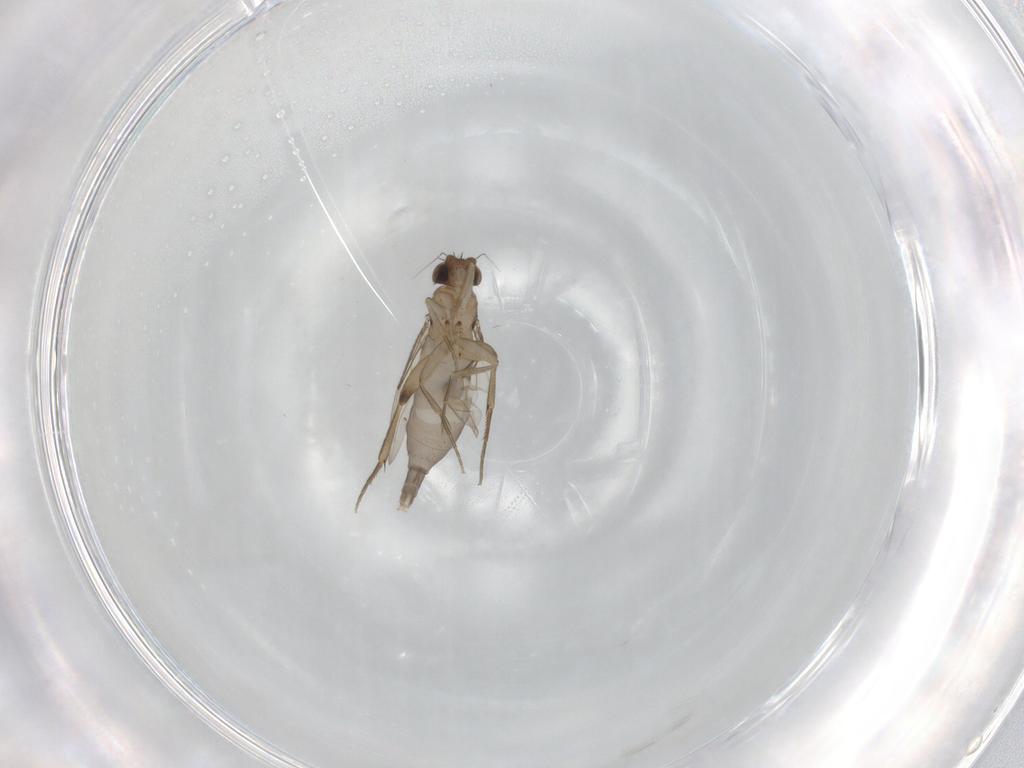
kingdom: Animalia
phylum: Arthropoda
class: Insecta
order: Diptera
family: Phoridae
